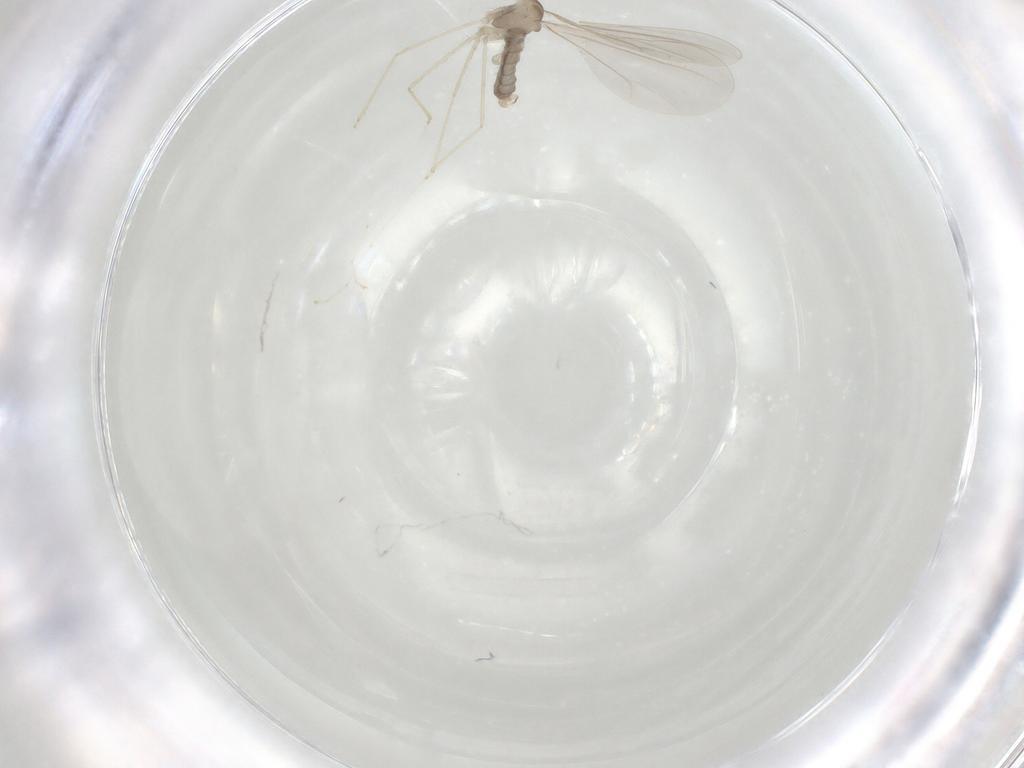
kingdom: Animalia
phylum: Arthropoda
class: Insecta
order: Diptera
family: Cecidomyiidae
